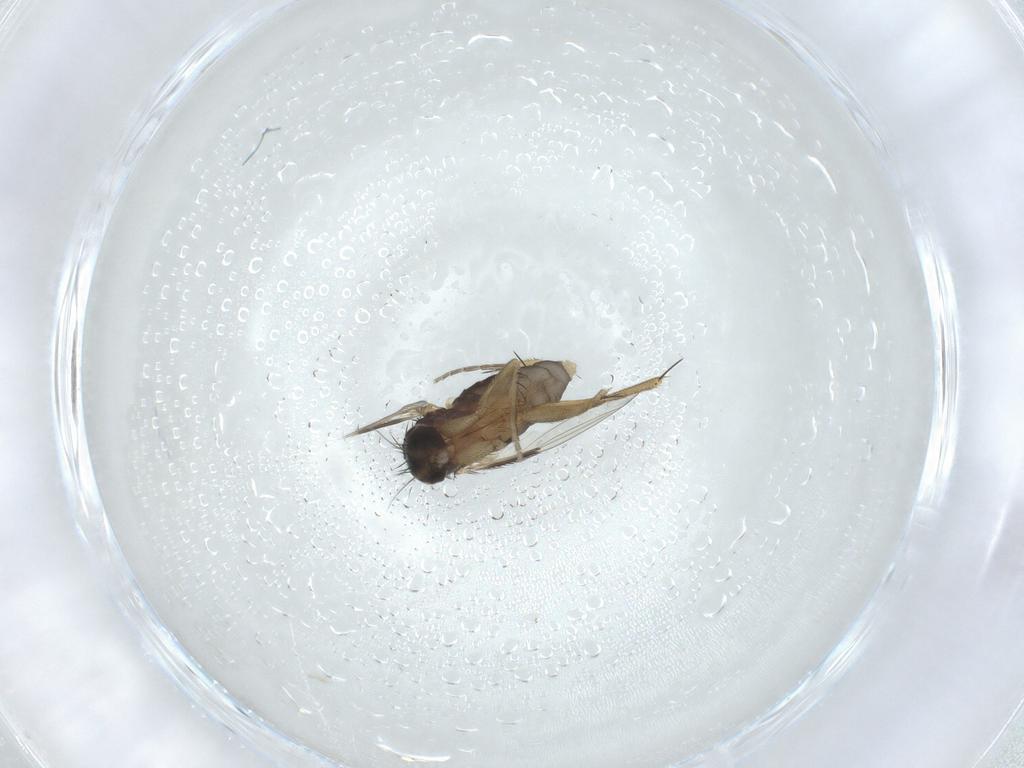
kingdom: Animalia
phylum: Arthropoda
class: Insecta
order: Diptera
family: Phoridae
